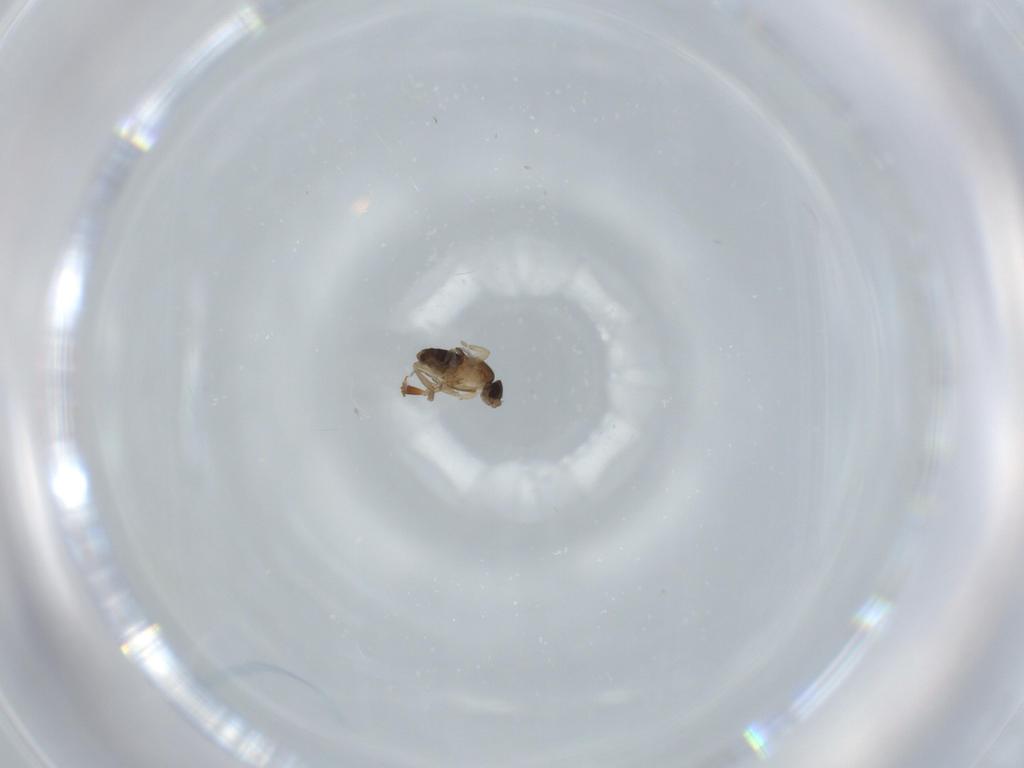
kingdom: Animalia
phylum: Arthropoda
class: Insecta
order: Diptera
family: Phoridae
